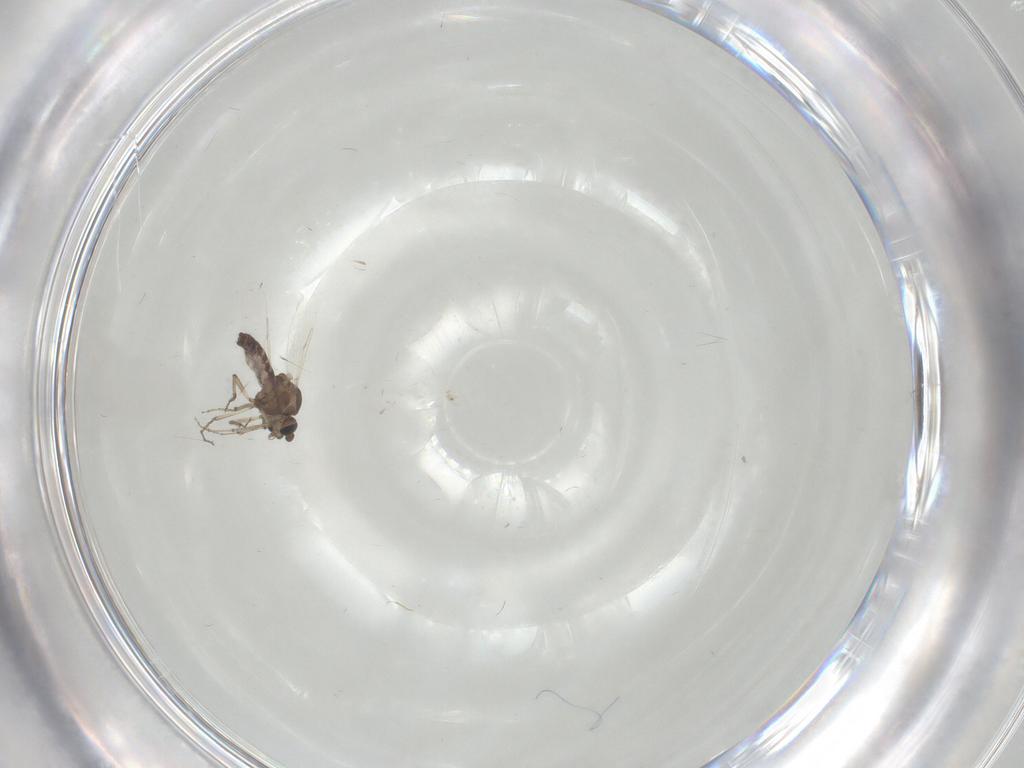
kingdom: Animalia
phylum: Arthropoda
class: Insecta
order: Diptera
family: Ceratopogonidae
